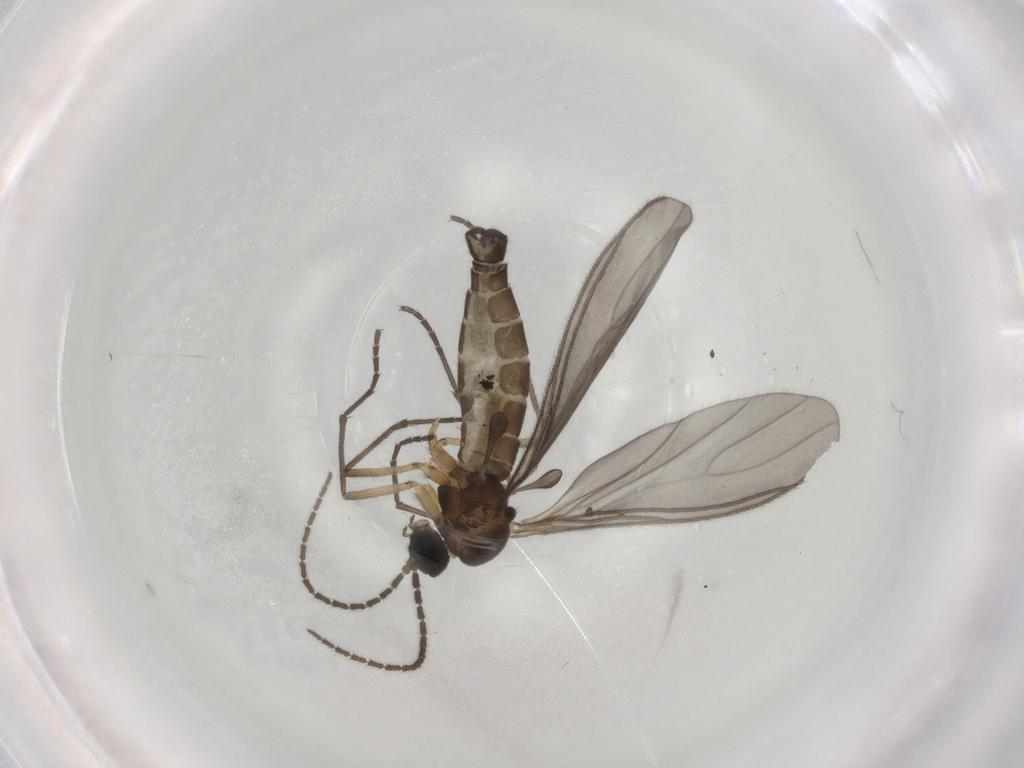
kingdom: Animalia
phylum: Arthropoda
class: Insecta
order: Diptera
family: Sciaridae
